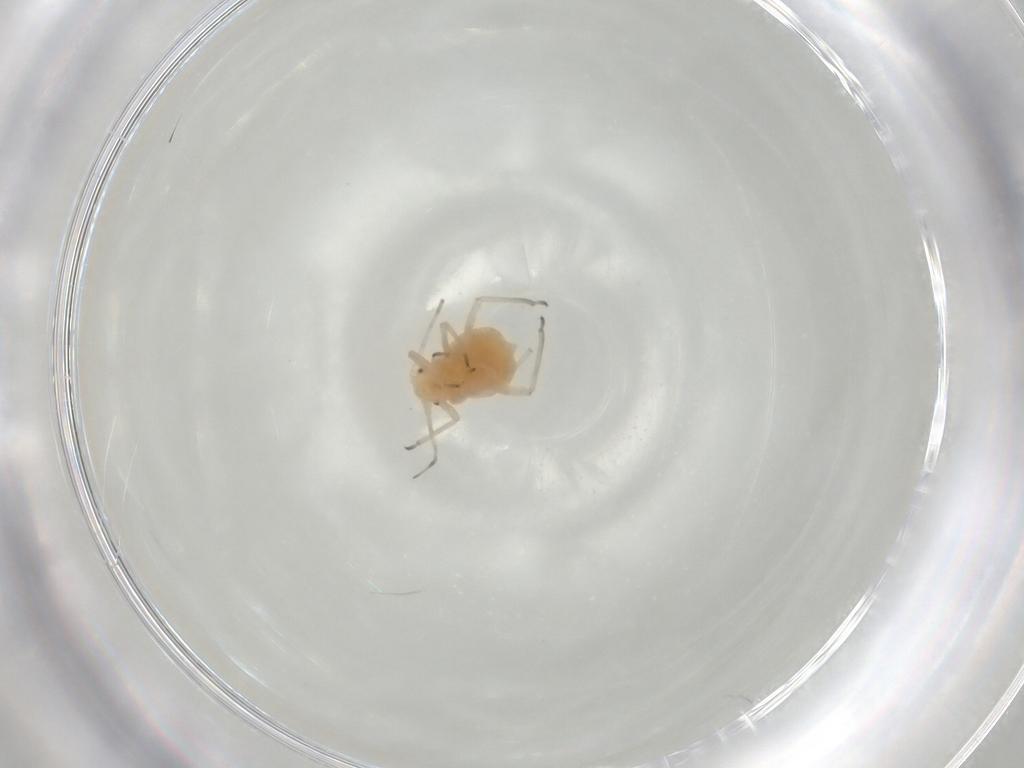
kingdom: Animalia
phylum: Arthropoda
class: Insecta
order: Hemiptera
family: Aphididae
